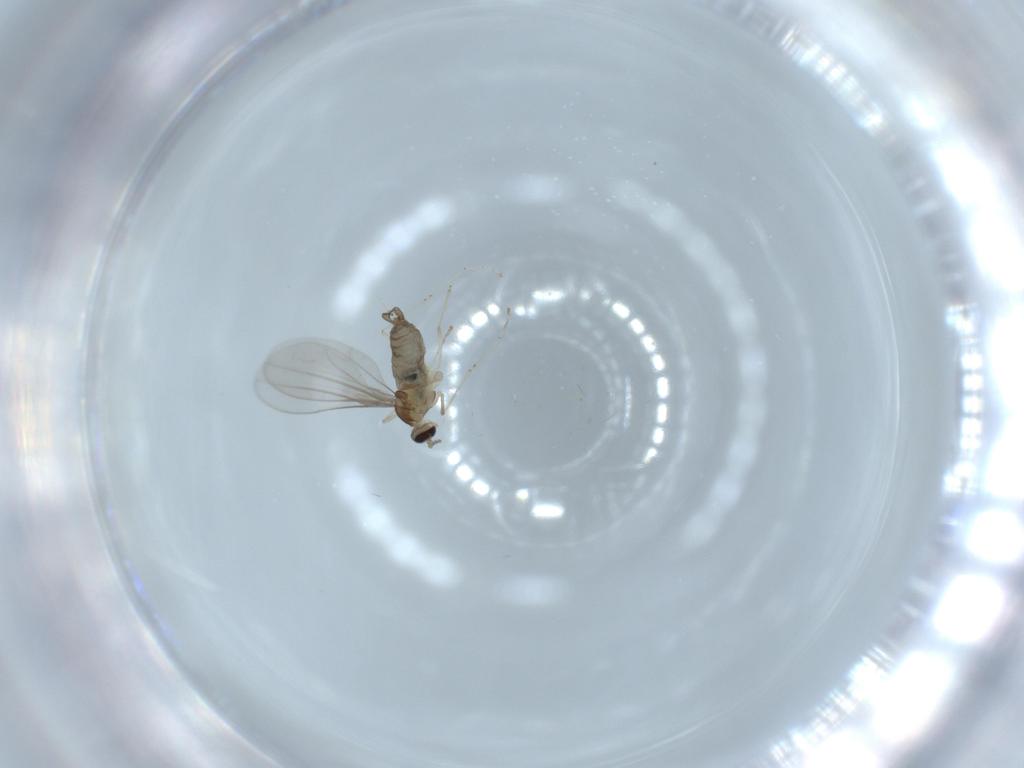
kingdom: Animalia
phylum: Arthropoda
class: Insecta
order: Diptera
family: Cecidomyiidae
